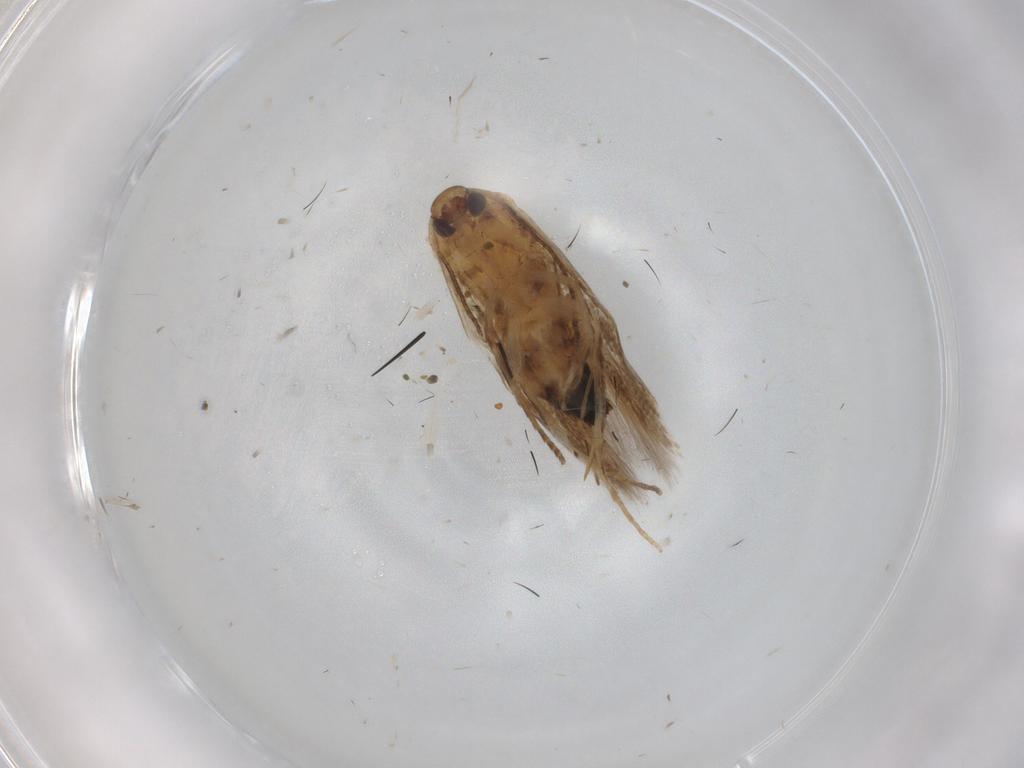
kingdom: Animalia
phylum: Arthropoda
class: Insecta
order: Lepidoptera
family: Cosmopterigidae
